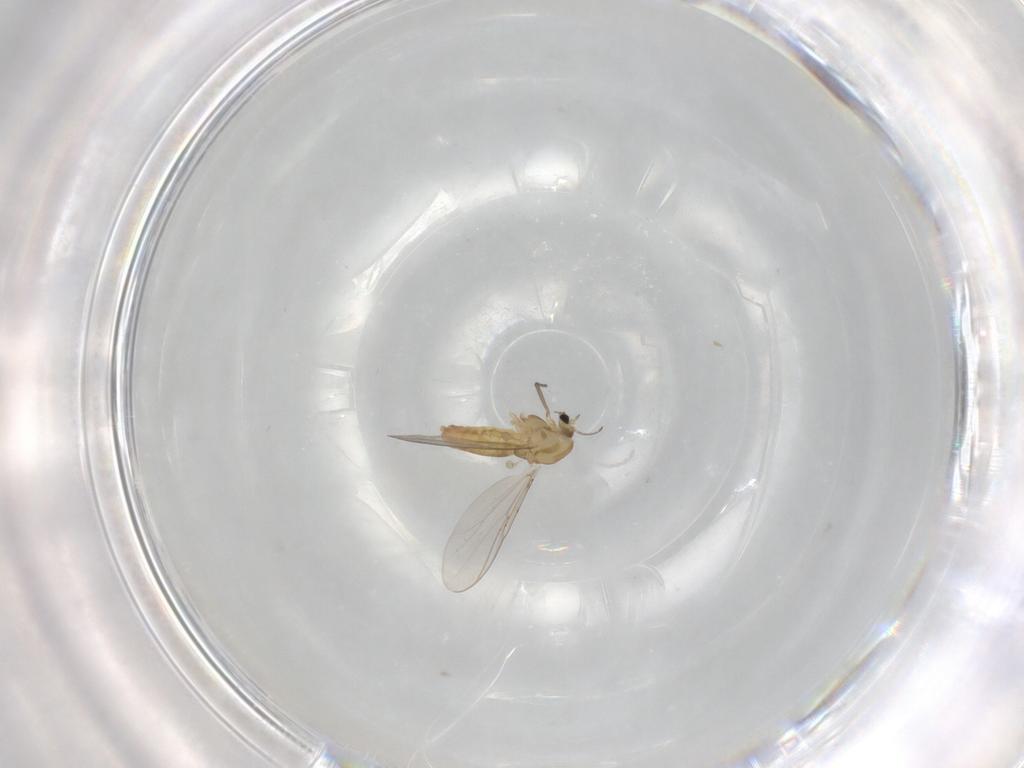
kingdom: Animalia
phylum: Arthropoda
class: Insecta
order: Diptera
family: Chironomidae
